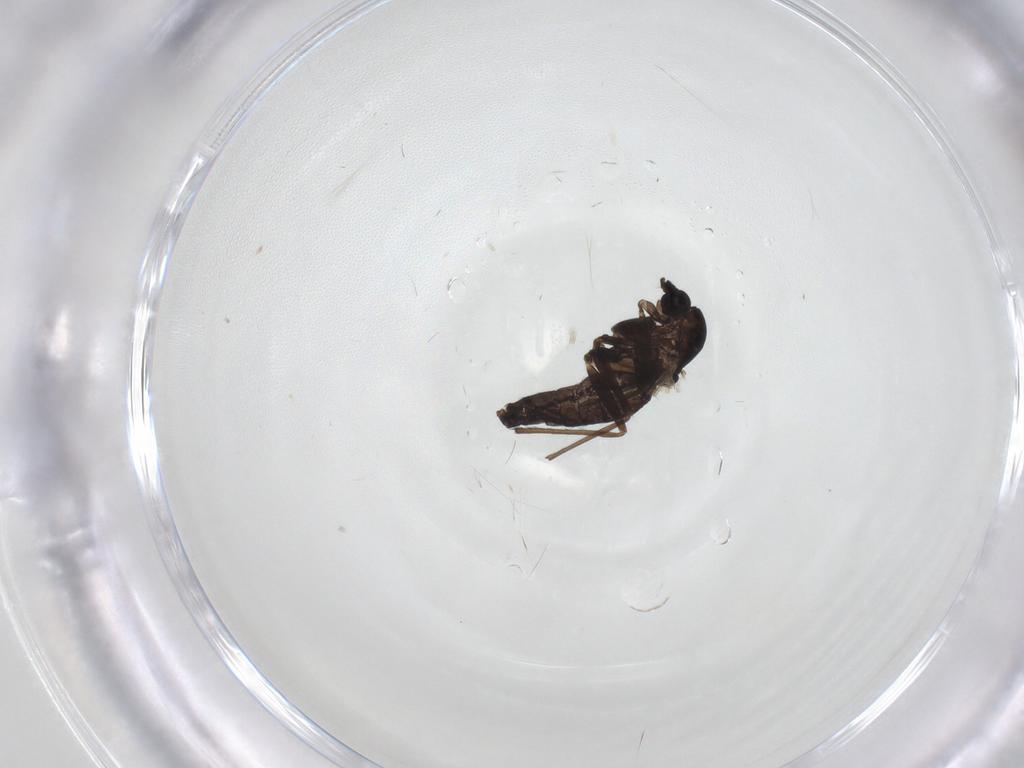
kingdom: Animalia
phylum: Arthropoda
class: Insecta
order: Diptera
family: Chironomidae
